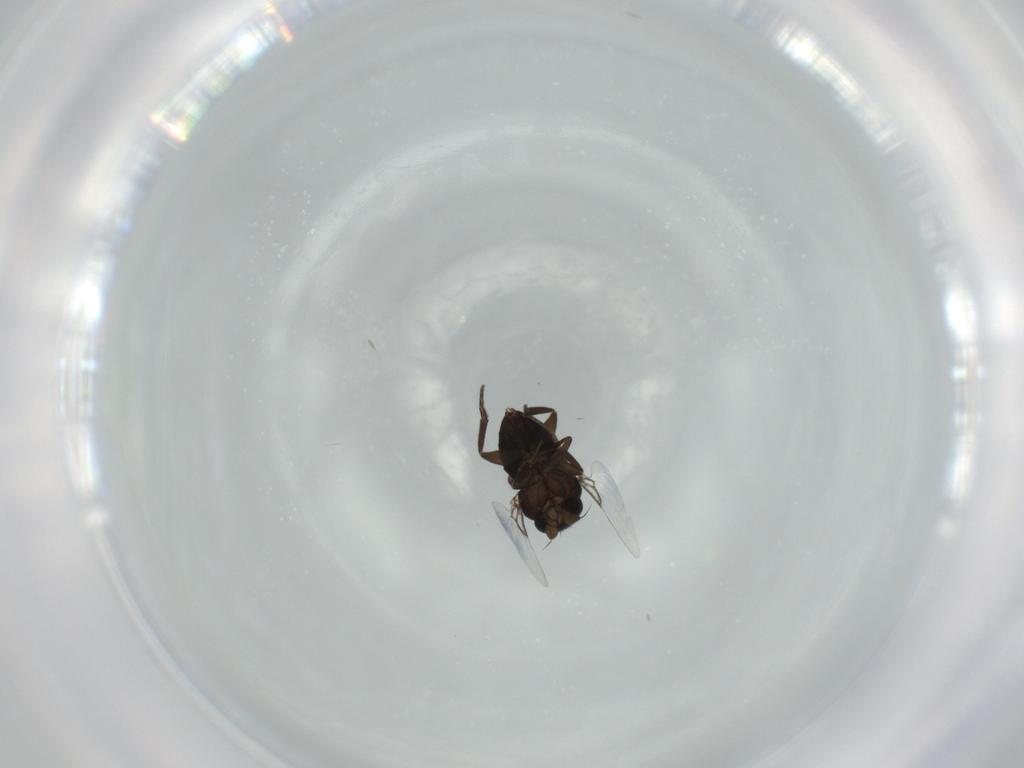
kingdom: Animalia
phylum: Arthropoda
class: Insecta
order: Diptera
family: Phoridae
